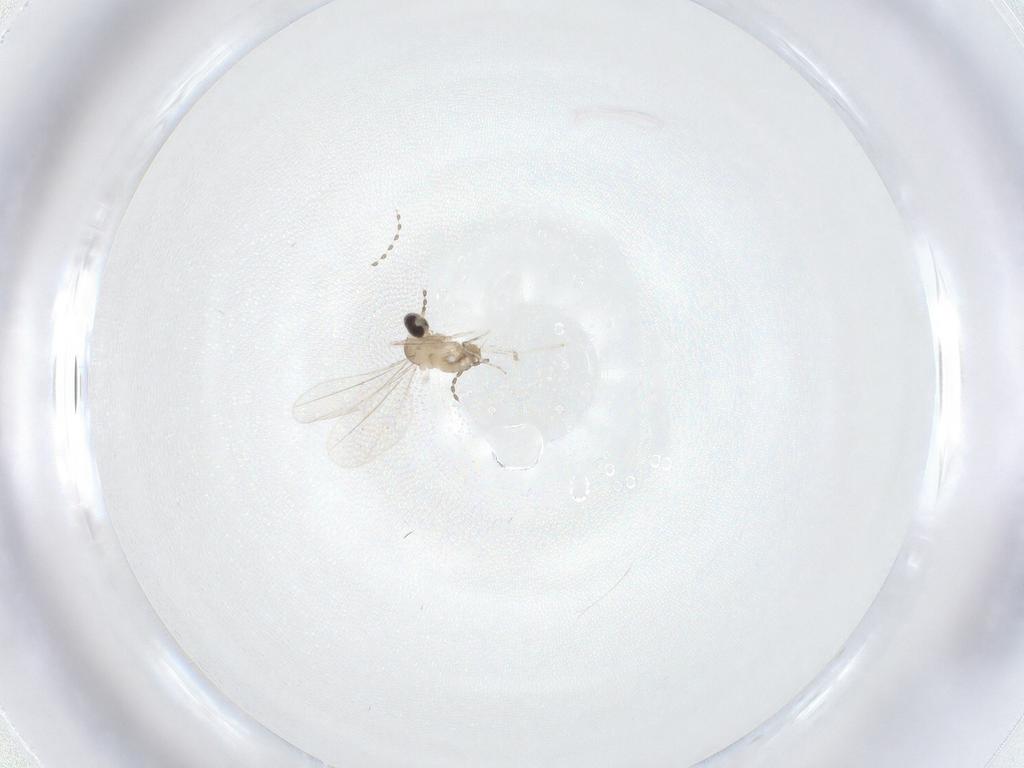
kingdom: Animalia
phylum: Arthropoda
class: Insecta
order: Diptera
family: Cecidomyiidae
